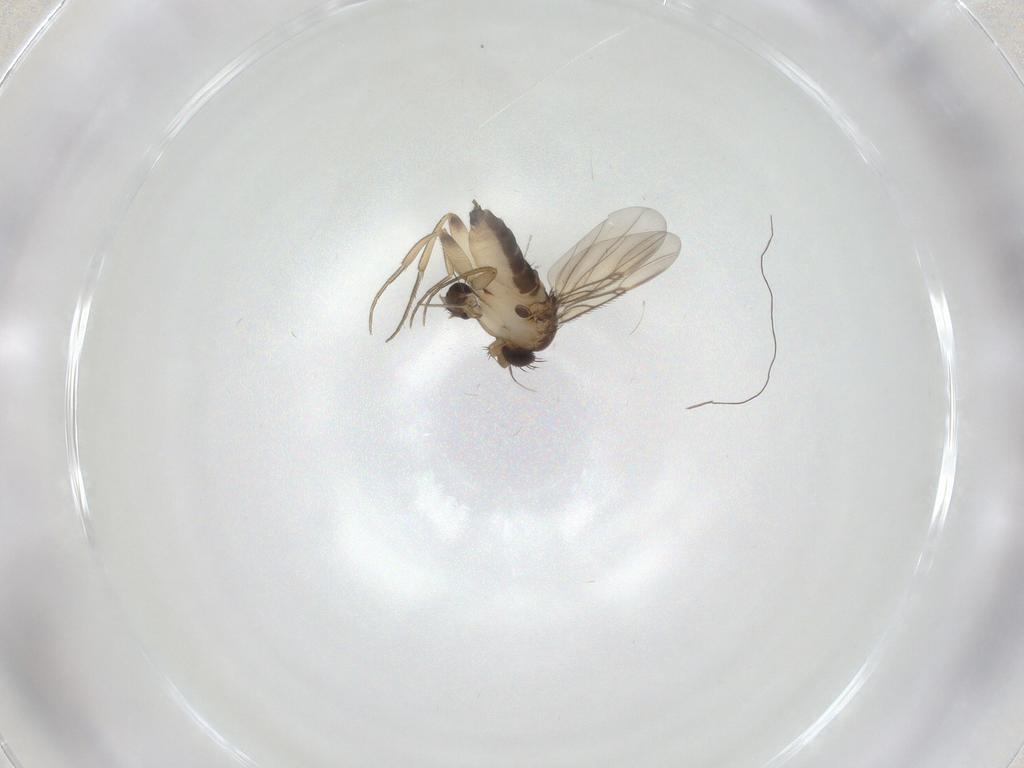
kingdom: Animalia
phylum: Arthropoda
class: Insecta
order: Diptera
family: Phoridae
